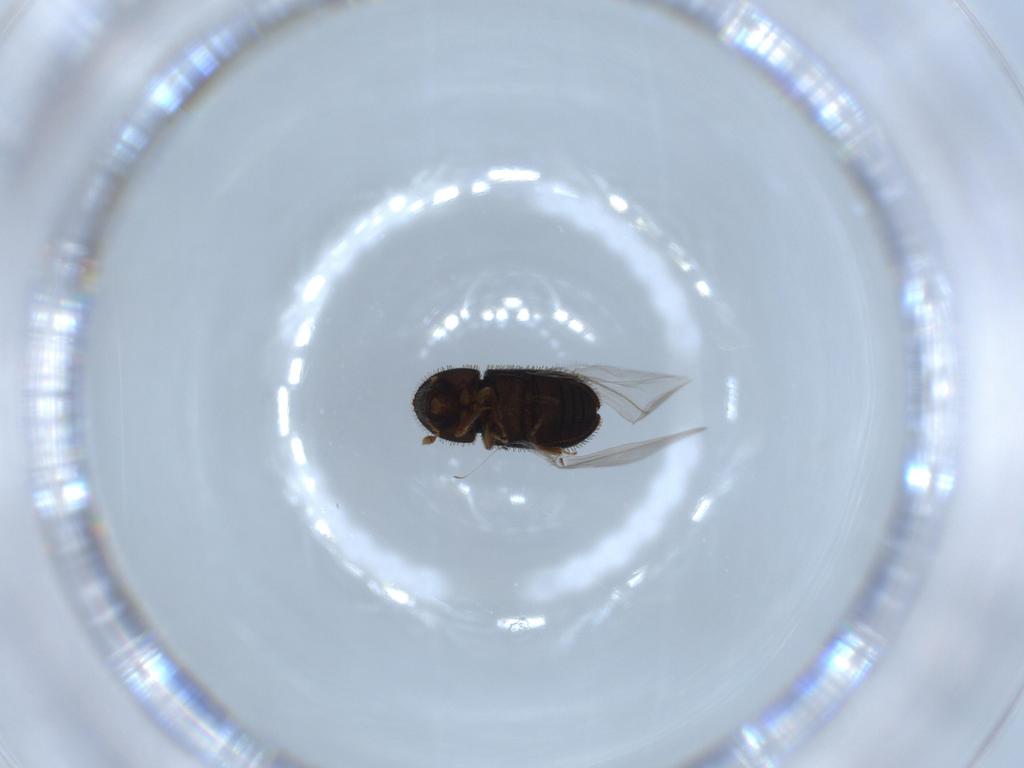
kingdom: Animalia
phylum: Arthropoda
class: Insecta
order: Coleoptera
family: Curculionidae
